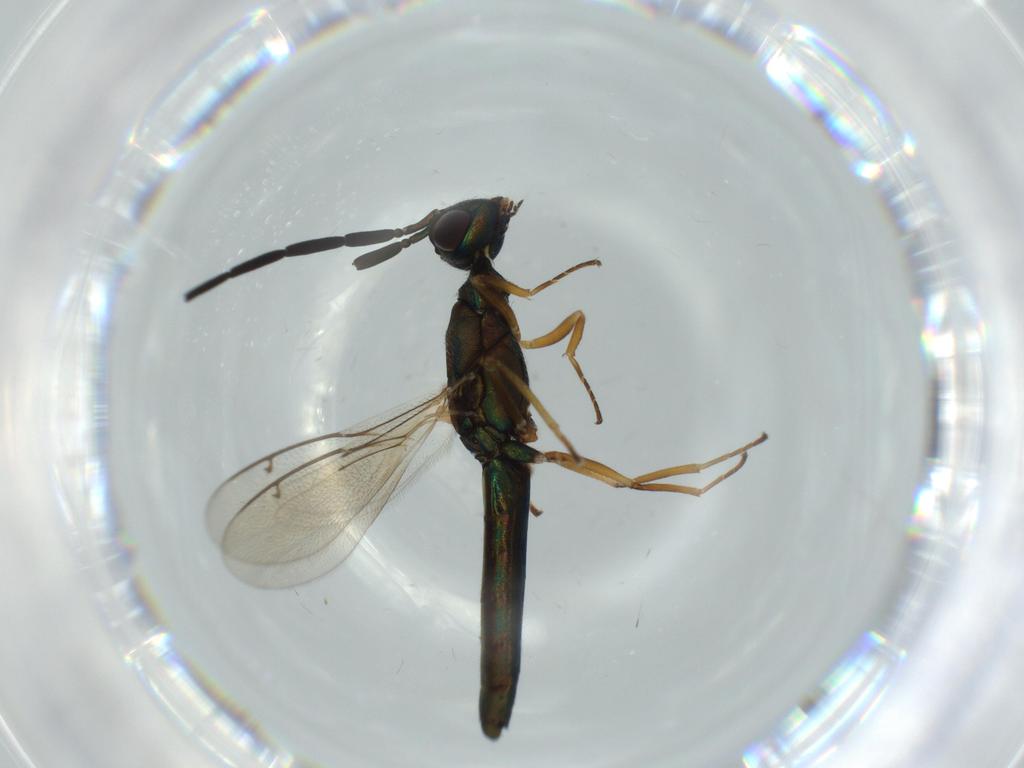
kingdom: Animalia
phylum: Arthropoda
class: Insecta
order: Hymenoptera
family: Eupelmidae
